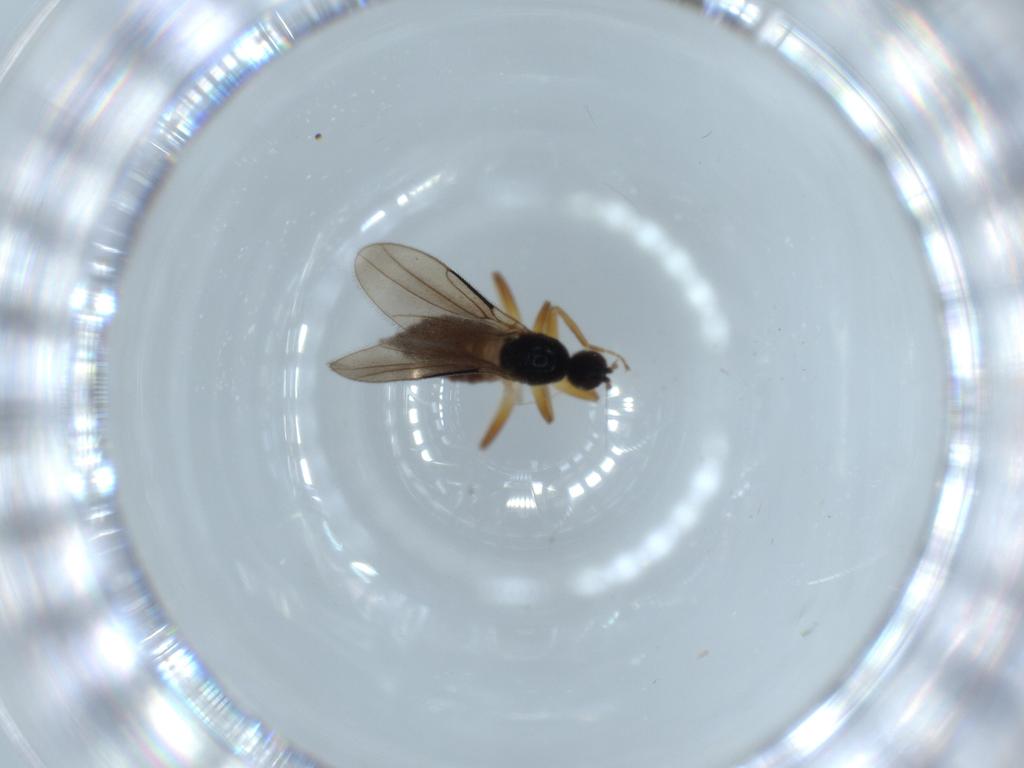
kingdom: Animalia
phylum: Arthropoda
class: Insecta
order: Diptera
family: Chironomidae
